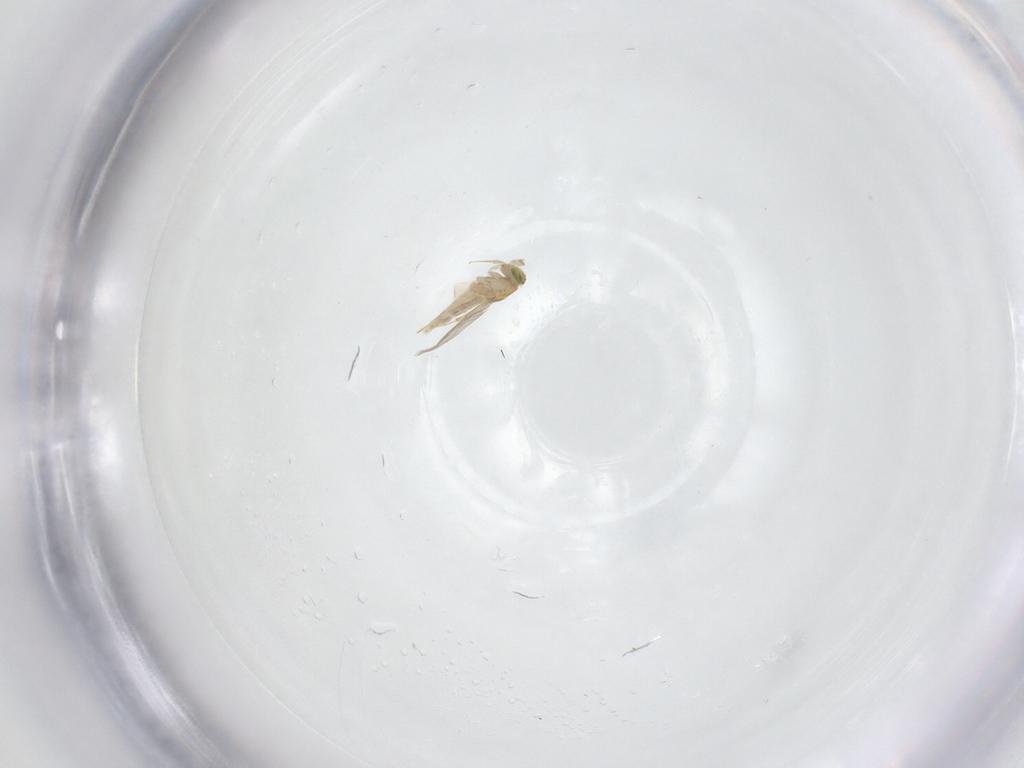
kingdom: Animalia
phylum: Arthropoda
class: Insecta
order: Hymenoptera
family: Aphelinidae
